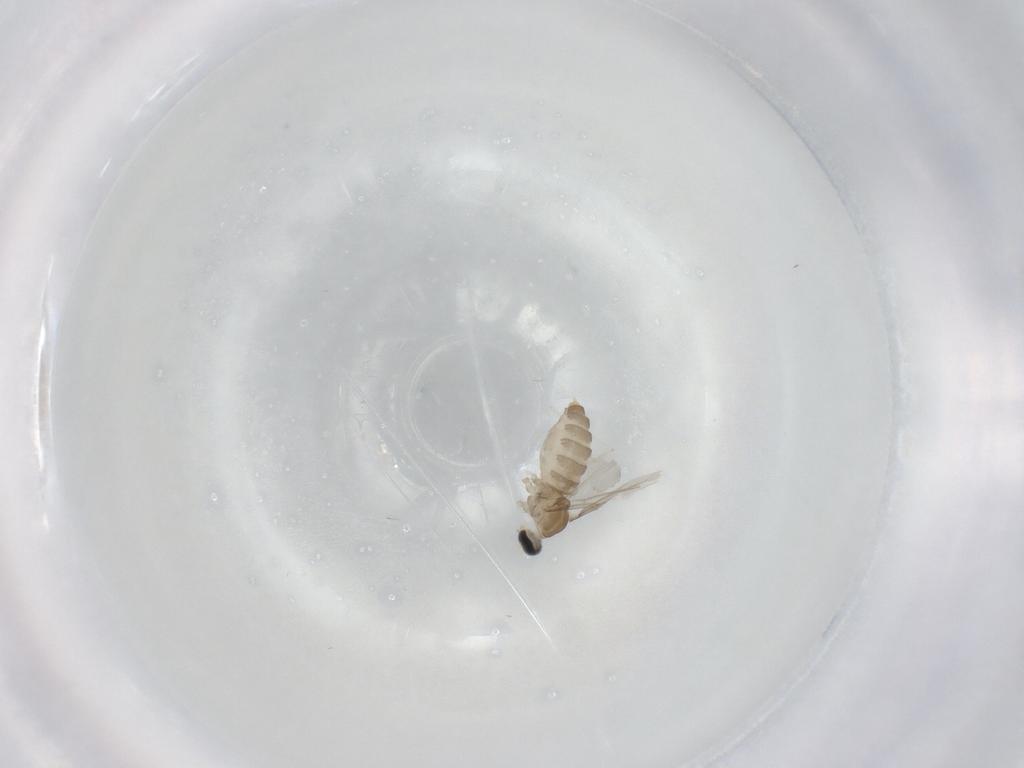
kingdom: Animalia
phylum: Arthropoda
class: Insecta
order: Diptera
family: Cecidomyiidae
